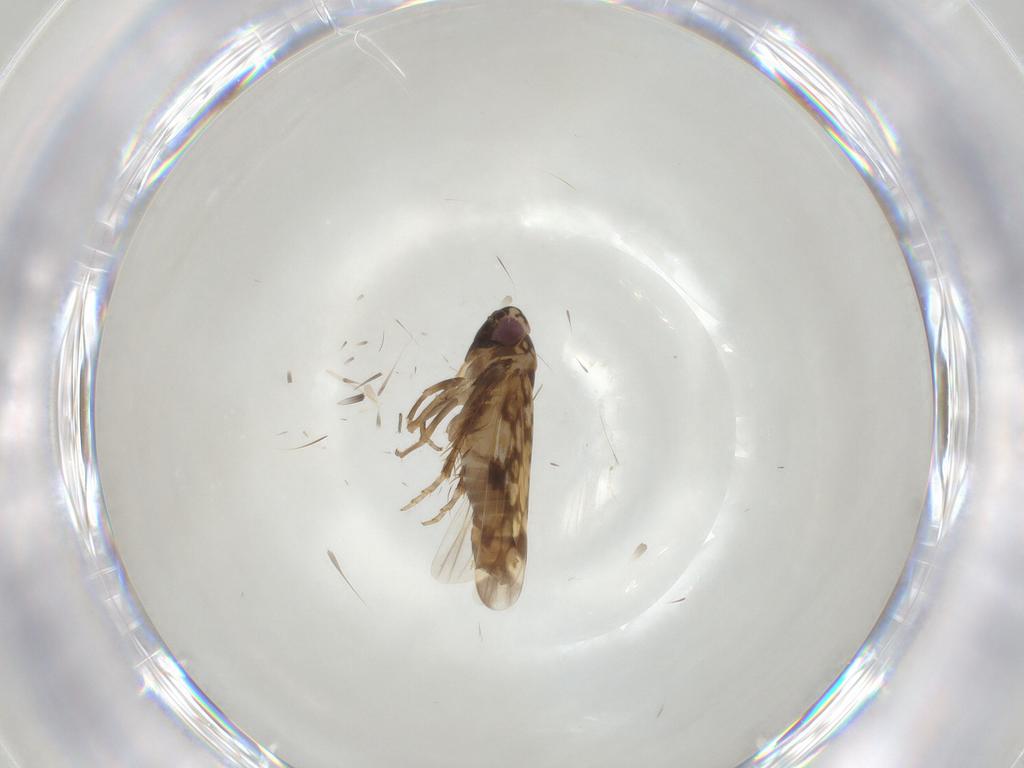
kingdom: Animalia
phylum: Arthropoda
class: Insecta
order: Hemiptera
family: Cicadellidae
